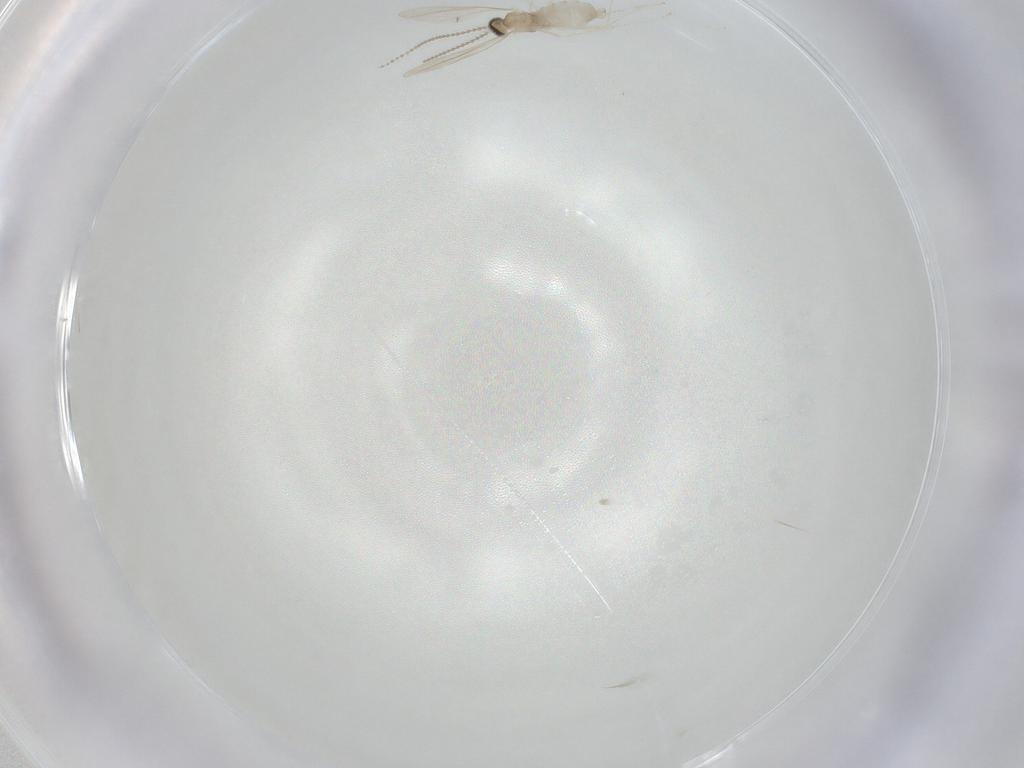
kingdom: Animalia
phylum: Arthropoda
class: Insecta
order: Diptera
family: Cecidomyiidae
